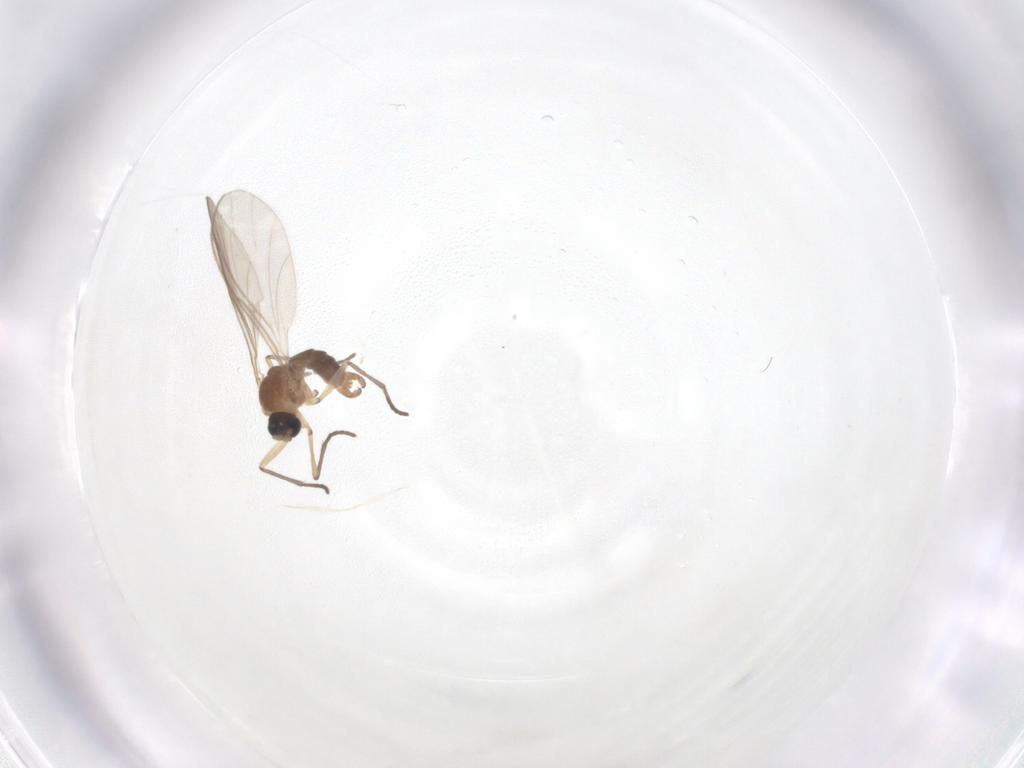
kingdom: Animalia
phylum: Arthropoda
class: Insecta
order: Diptera
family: Sciaridae
